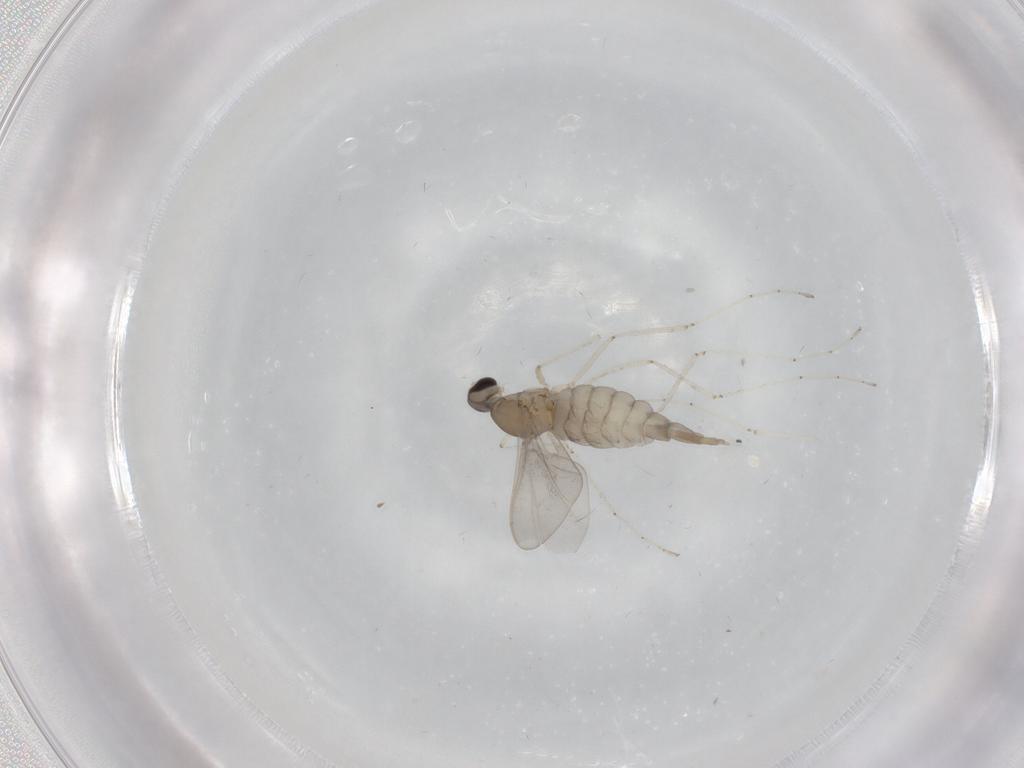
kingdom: Animalia
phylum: Arthropoda
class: Insecta
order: Diptera
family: Cecidomyiidae
